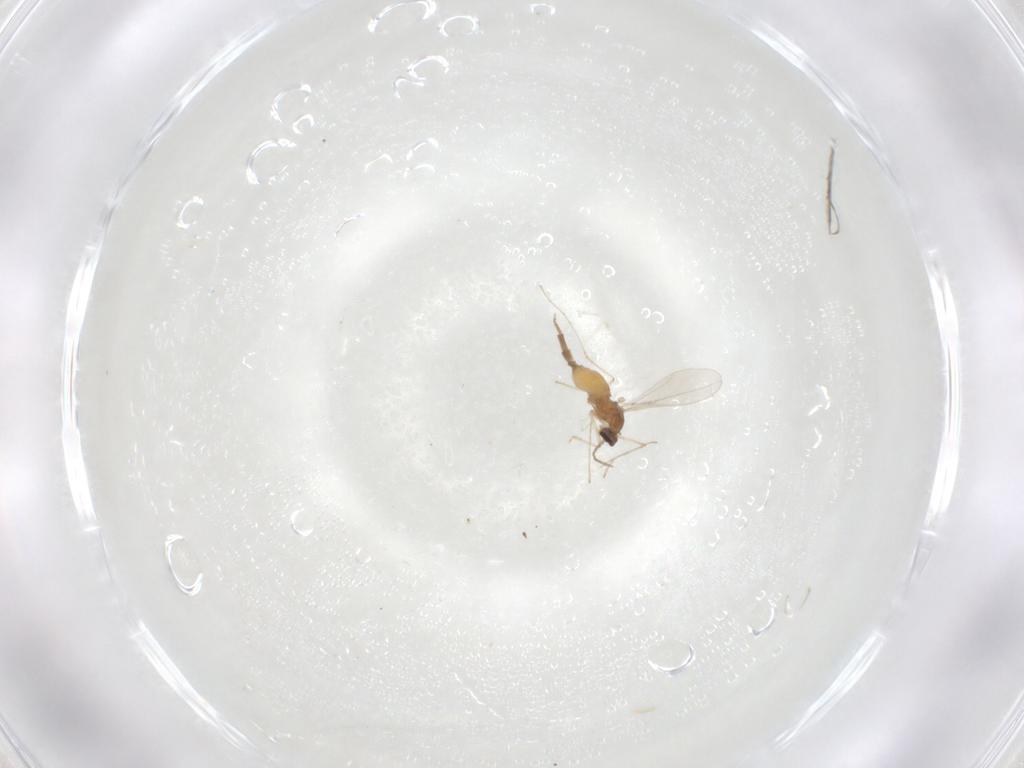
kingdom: Animalia
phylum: Arthropoda
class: Insecta
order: Diptera
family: Cecidomyiidae
